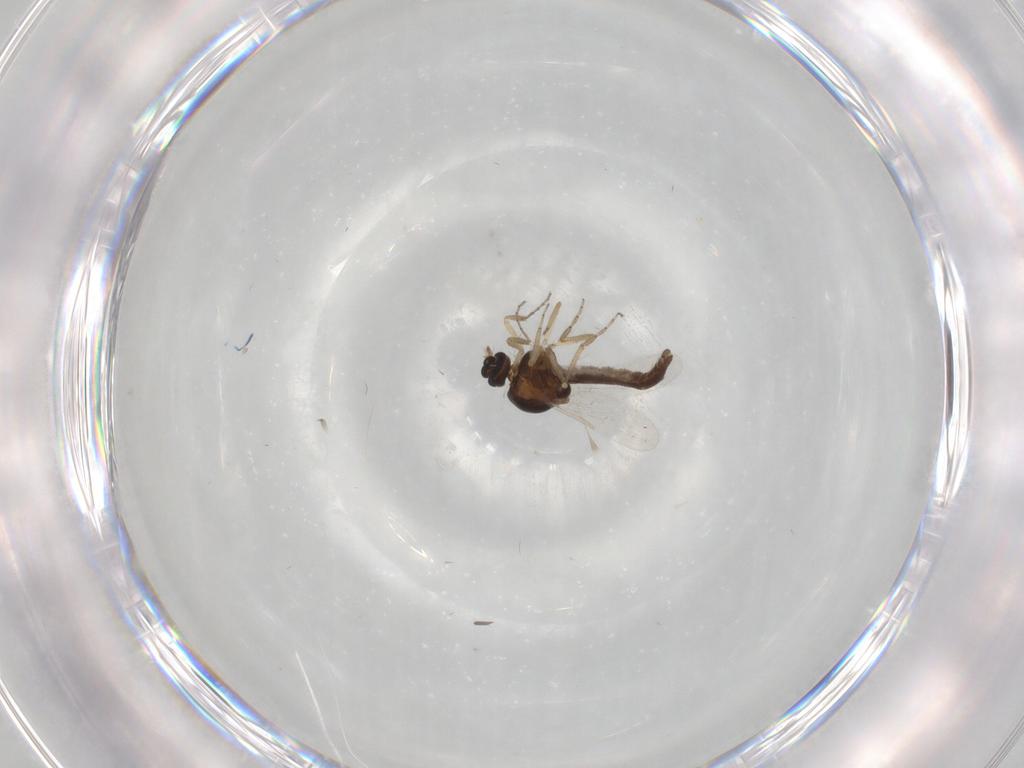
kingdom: Animalia
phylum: Arthropoda
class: Insecta
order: Diptera
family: Ceratopogonidae
